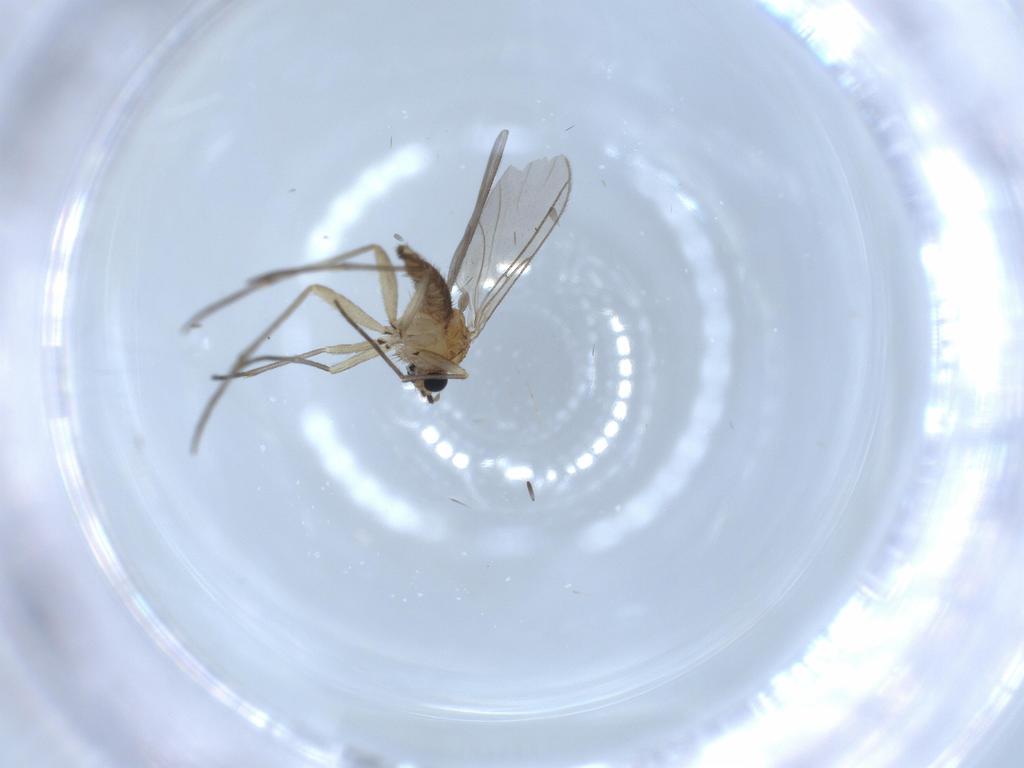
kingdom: Animalia
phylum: Arthropoda
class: Insecta
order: Diptera
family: Sciaridae
